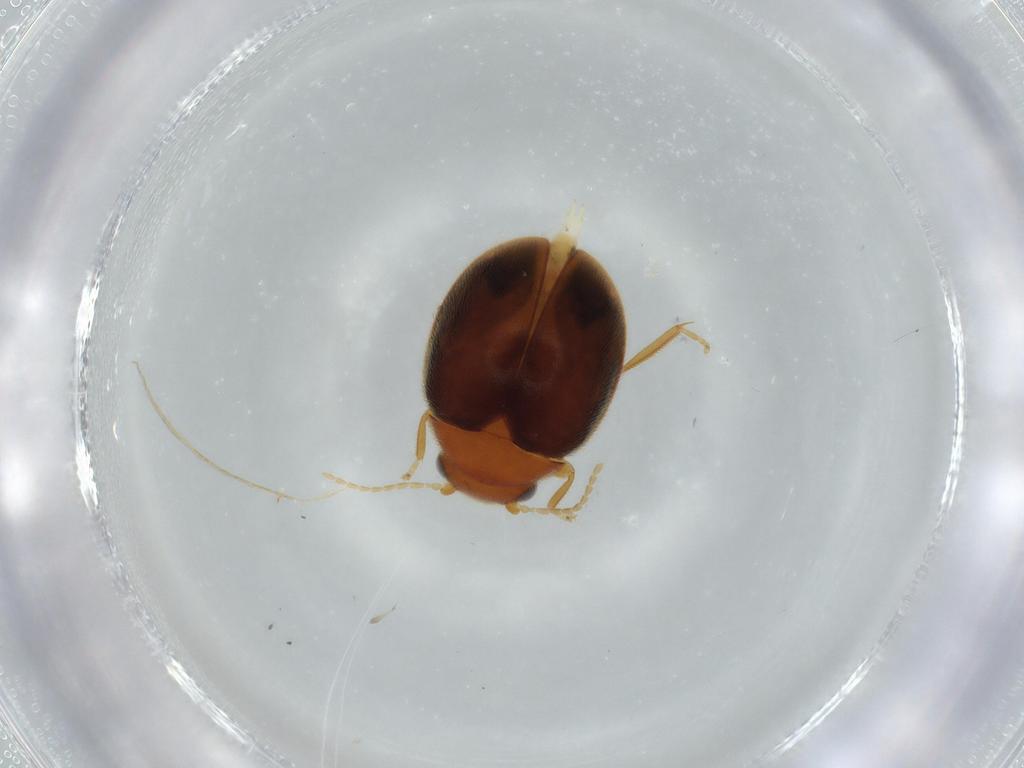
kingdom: Animalia
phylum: Arthropoda
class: Insecta
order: Coleoptera
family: Scirtidae
